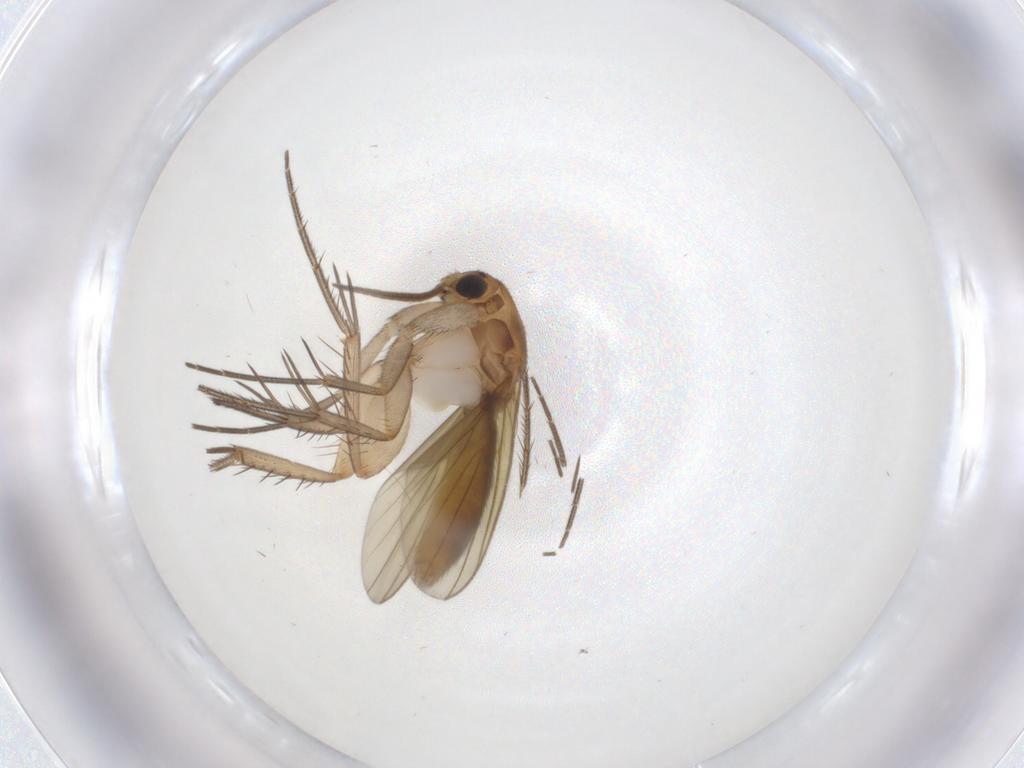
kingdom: Animalia
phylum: Arthropoda
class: Insecta
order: Diptera
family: Phoridae
